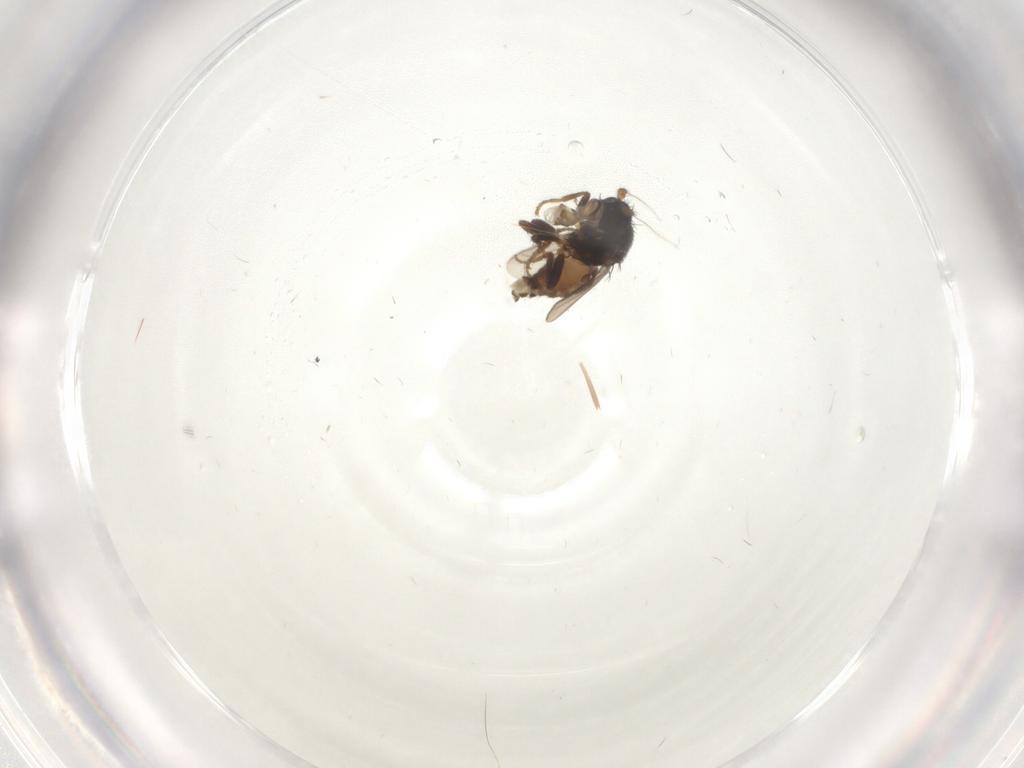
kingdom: Animalia
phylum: Arthropoda
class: Insecta
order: Diptera
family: Sphaeroceridae
